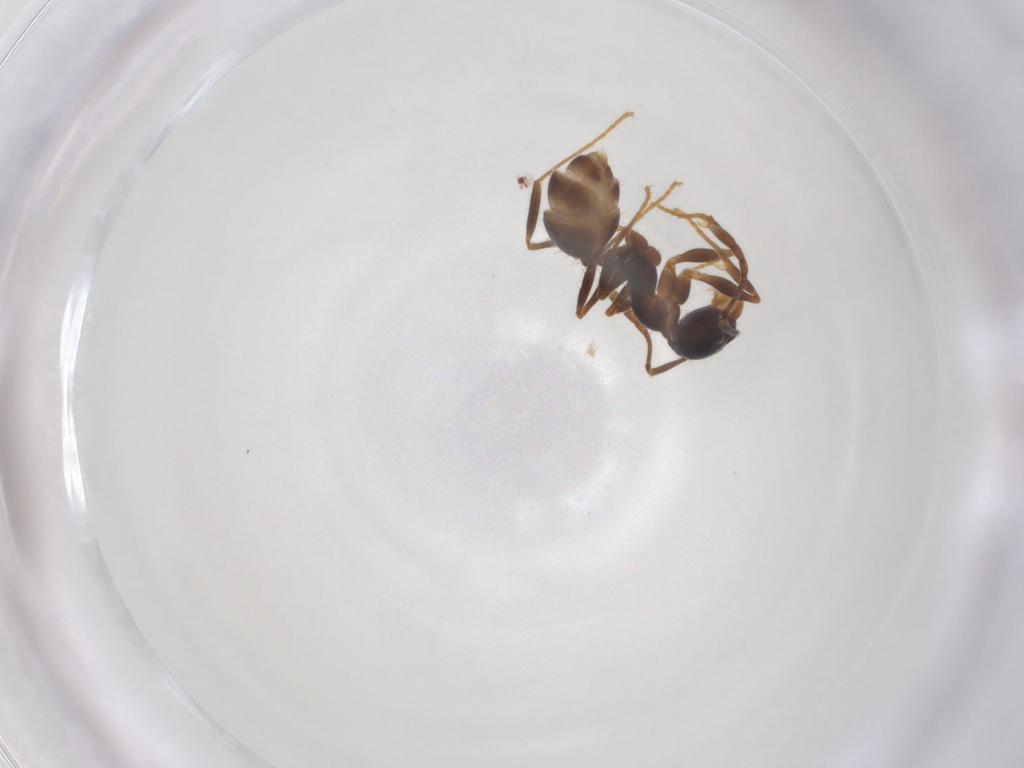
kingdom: Animalia
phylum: Arthropoda
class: Insecta
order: Hymenoptera
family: Formicidae
